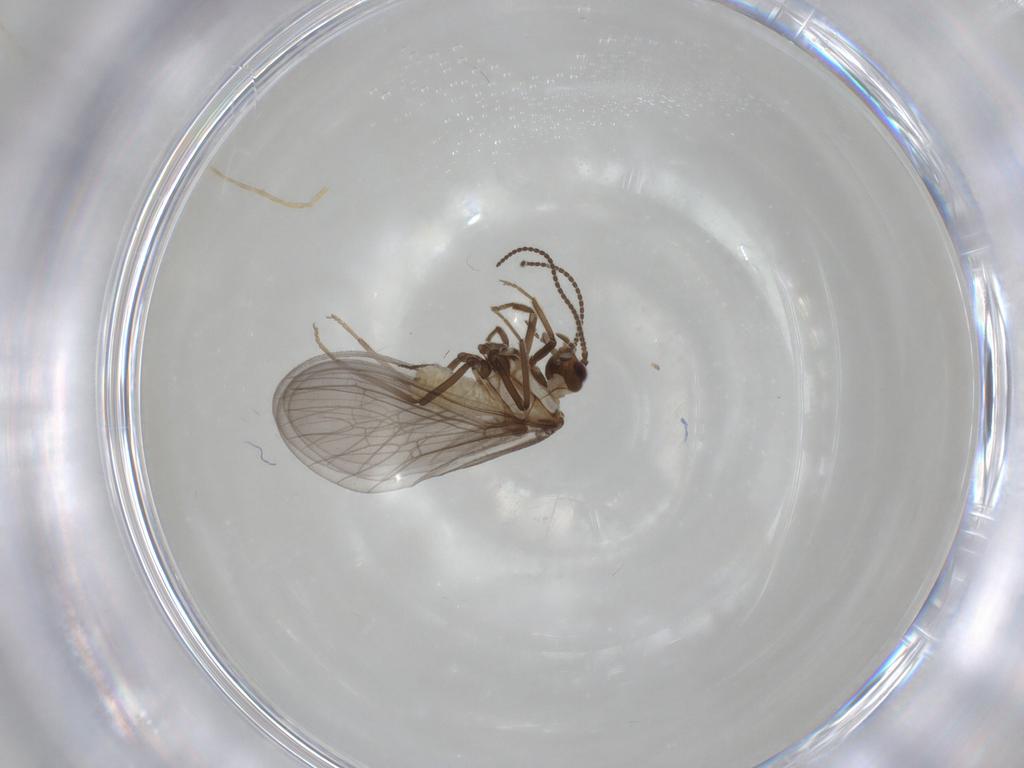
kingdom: Animalia
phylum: Arthropoda
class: Insecta
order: Neuroptera
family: Coniopterygidae
